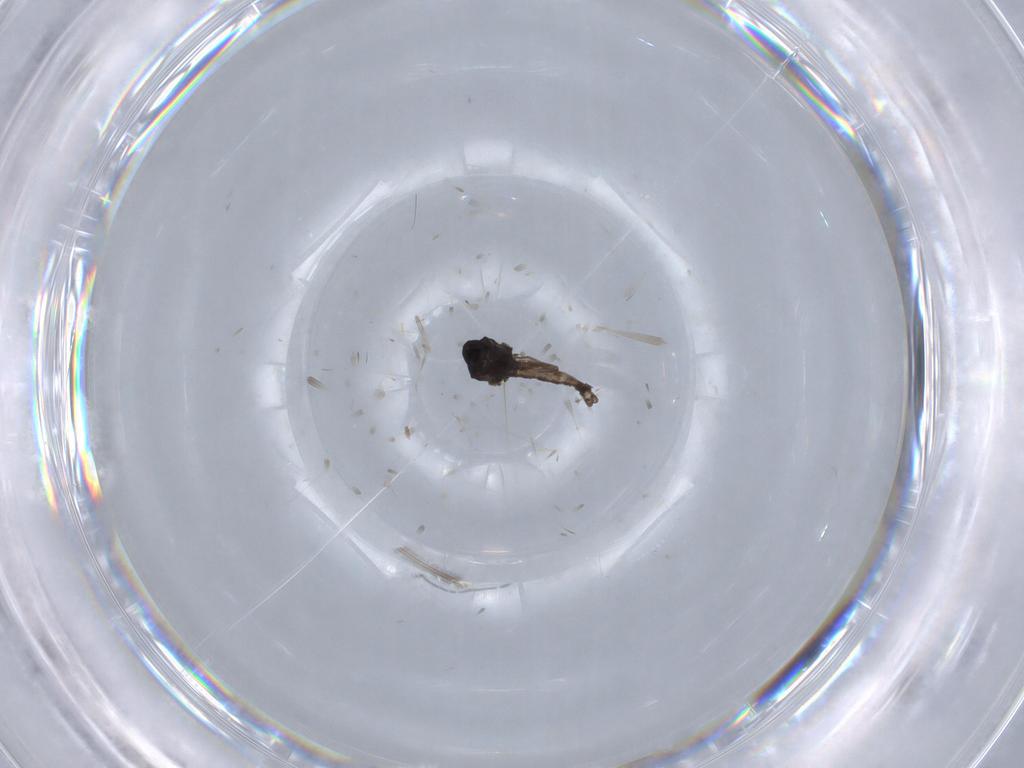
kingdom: Animalia
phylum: Arthropoda
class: Insecta
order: Diptera
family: Ceratopogonidae
